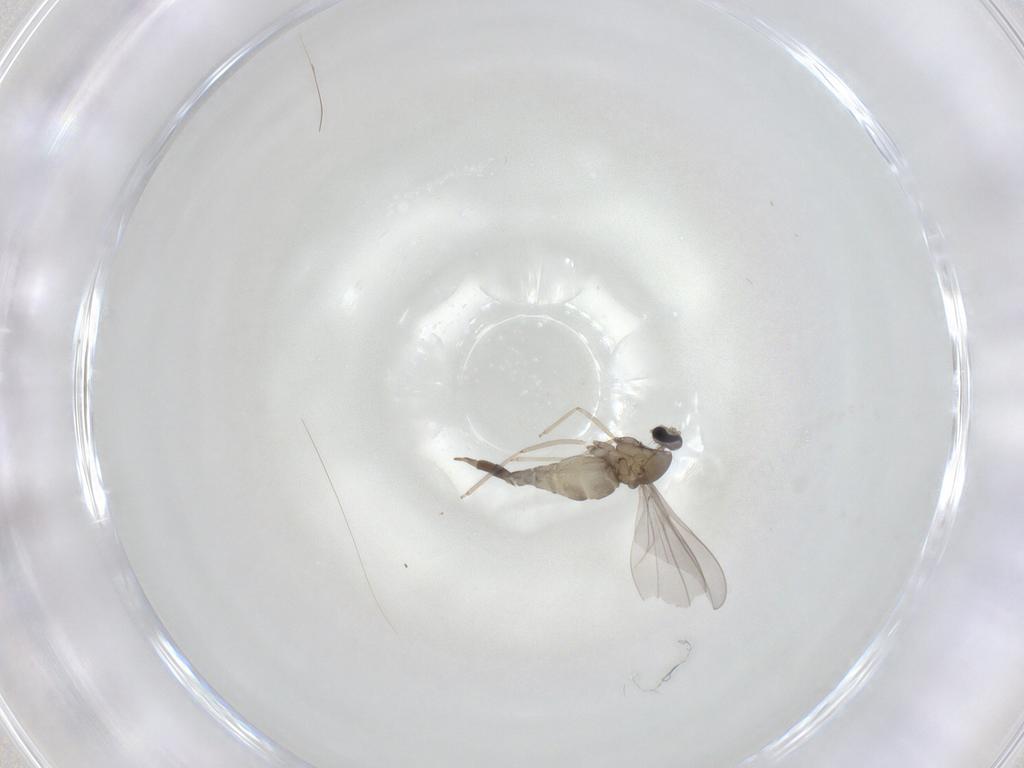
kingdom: Animalia
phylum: Arthropoda
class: Insecta
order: Diptera
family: Cecidomyiidae
